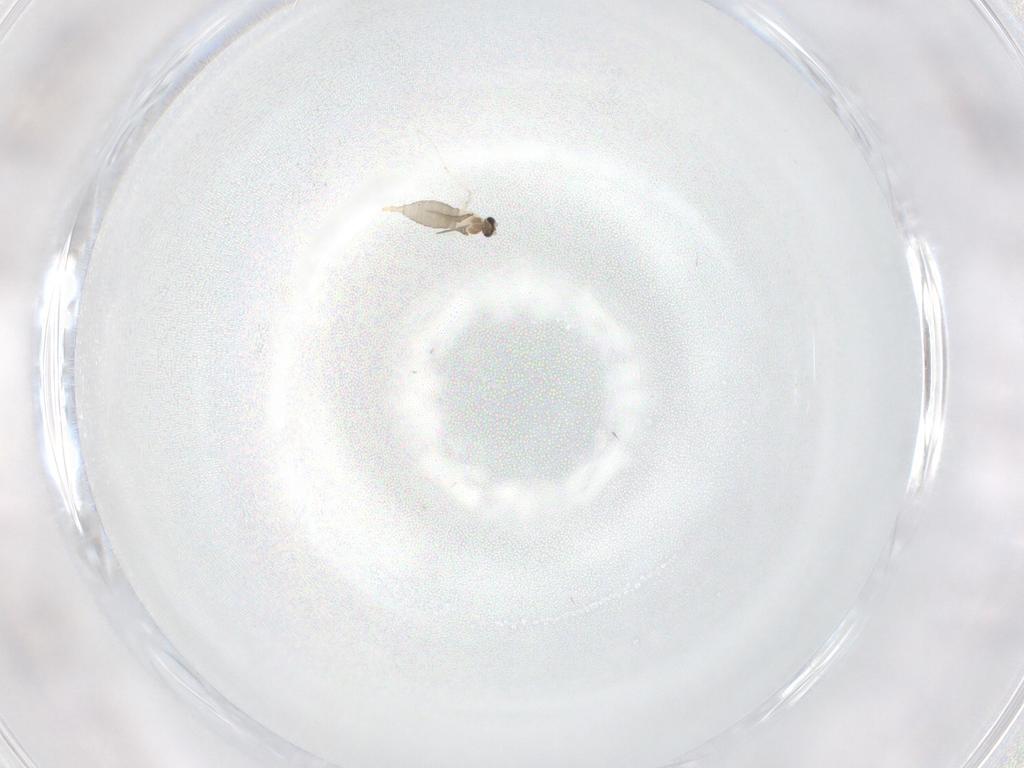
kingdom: Animalia
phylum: Arthropoda
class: Insecta
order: Diptera
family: Cecidomyiidae
